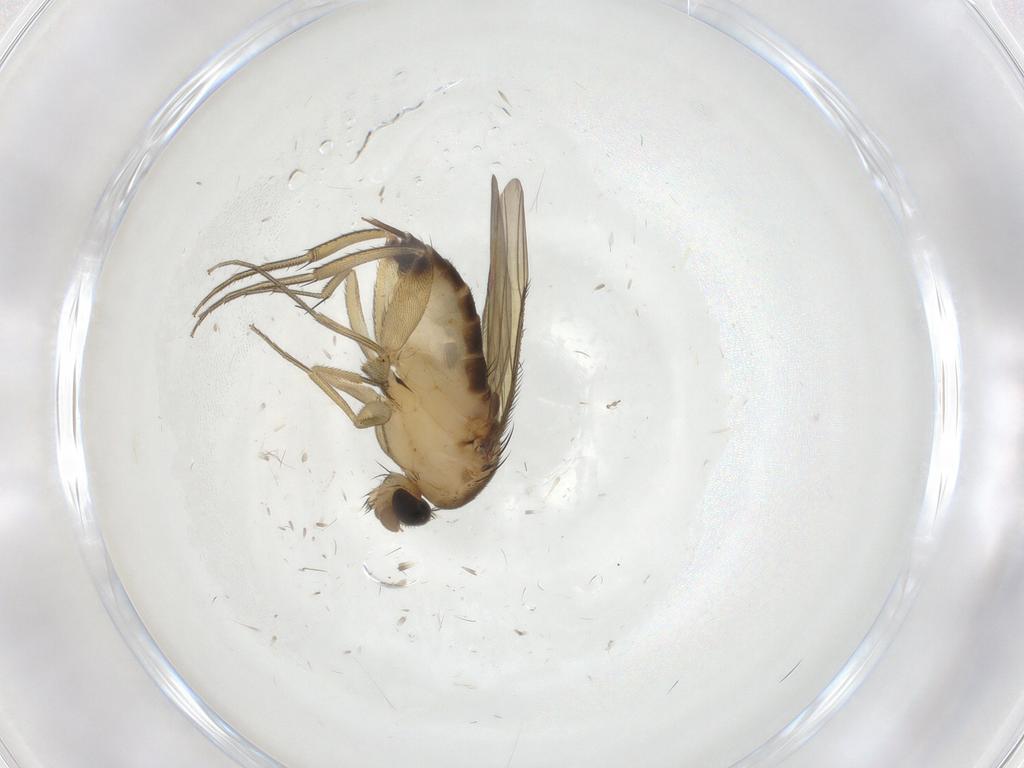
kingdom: Animalia
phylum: Arthropoda
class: Insecta
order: Diptera
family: Phoridae
